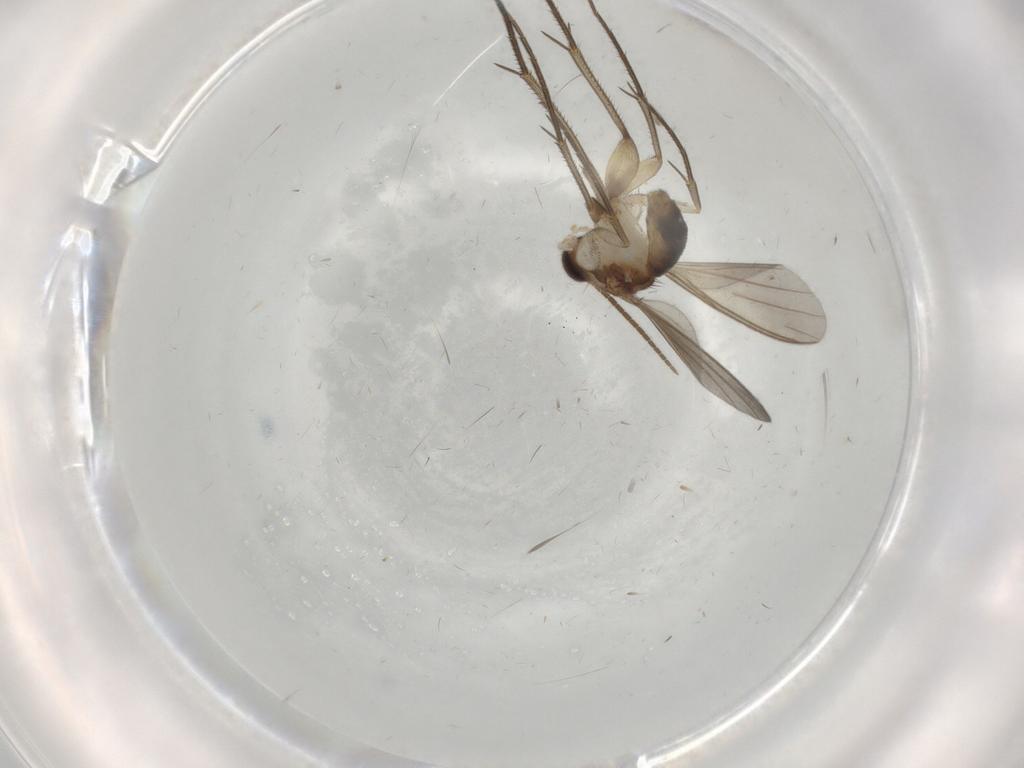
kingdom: Animalia
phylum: Arthropoda
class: Insecta
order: Diptera
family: Mycetophilidae
